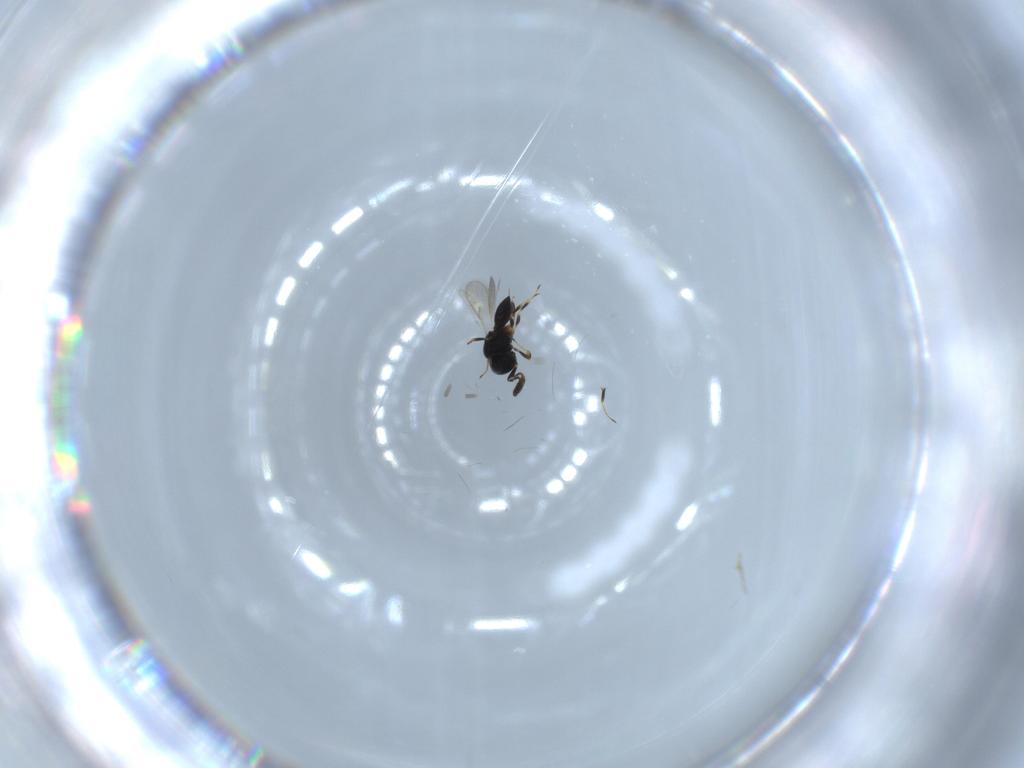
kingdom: Animalia
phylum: Arthropoda
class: Insecta
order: Hymenoptera
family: Scelionidae
